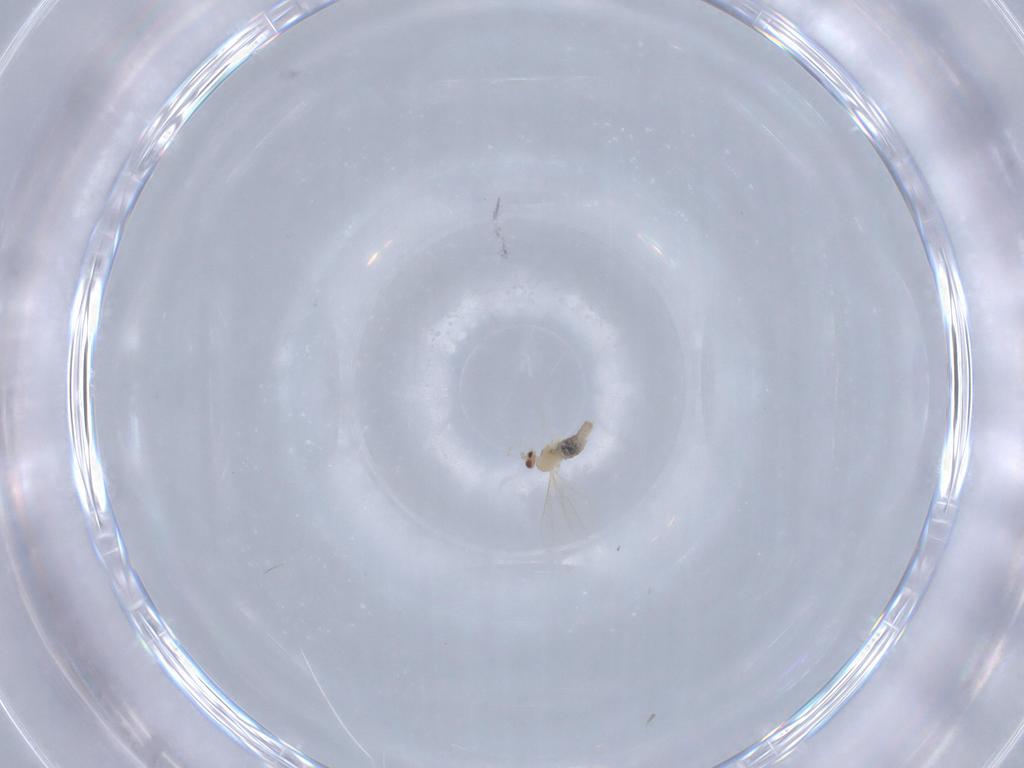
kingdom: Animalia
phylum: Arthropoda
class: Insecta
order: Diptera
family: Cecidomyiidae
